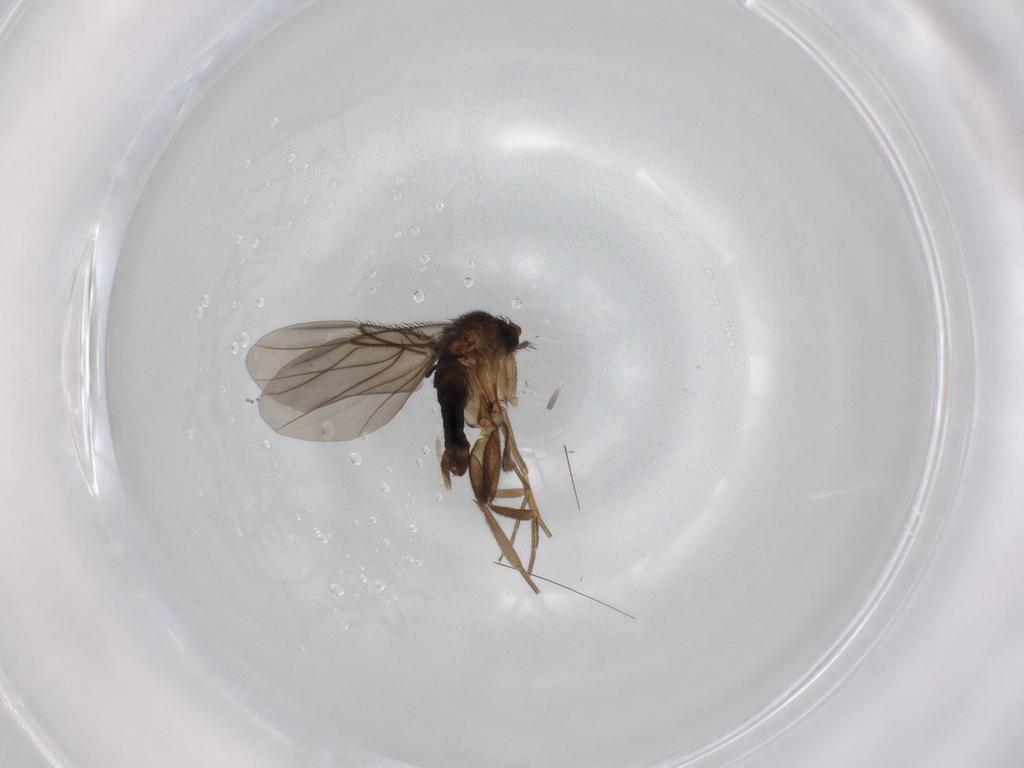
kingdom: Animalia
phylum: Arthropoda
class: Insecta
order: Diptera
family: Phoridae
